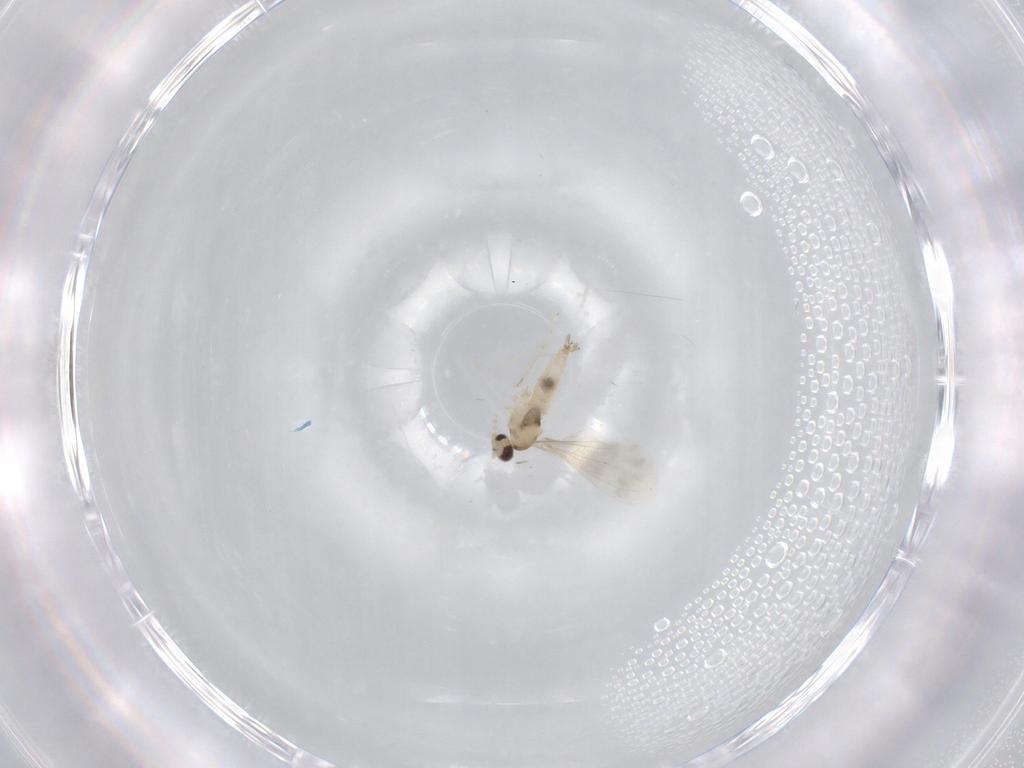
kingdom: Animalia
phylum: Arthropoda
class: Insecta
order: Diptera
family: Cecidomyiidae
